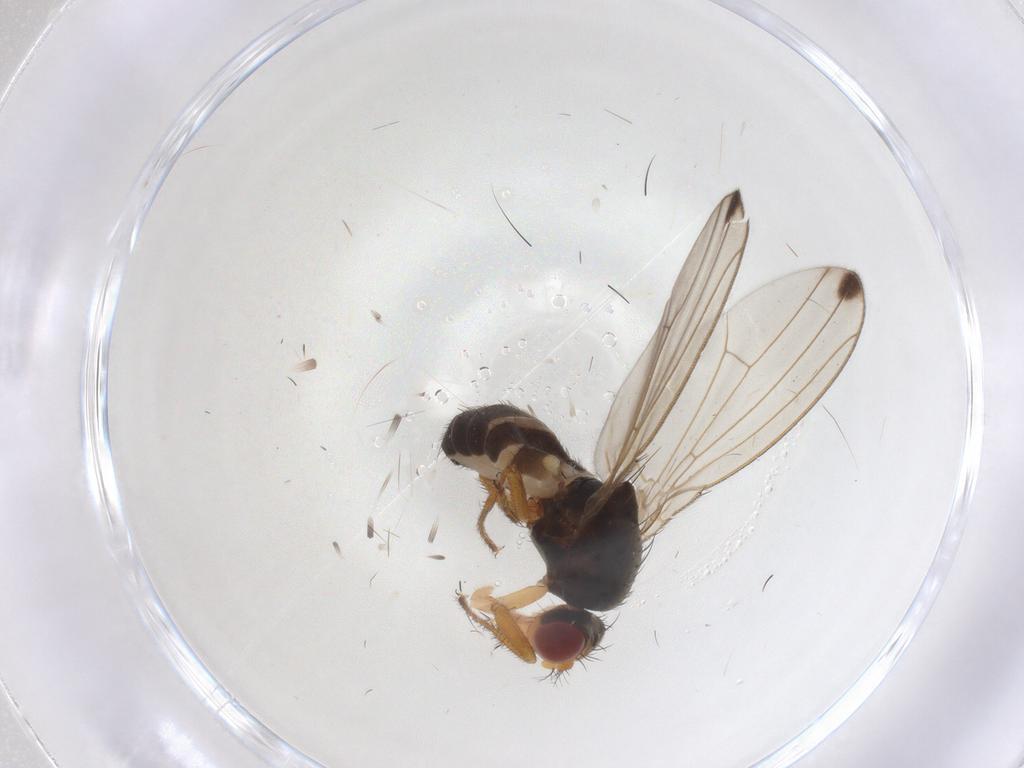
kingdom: Animalia
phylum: Arthropoda
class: Insecta
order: Diptera
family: Drosophilidae
